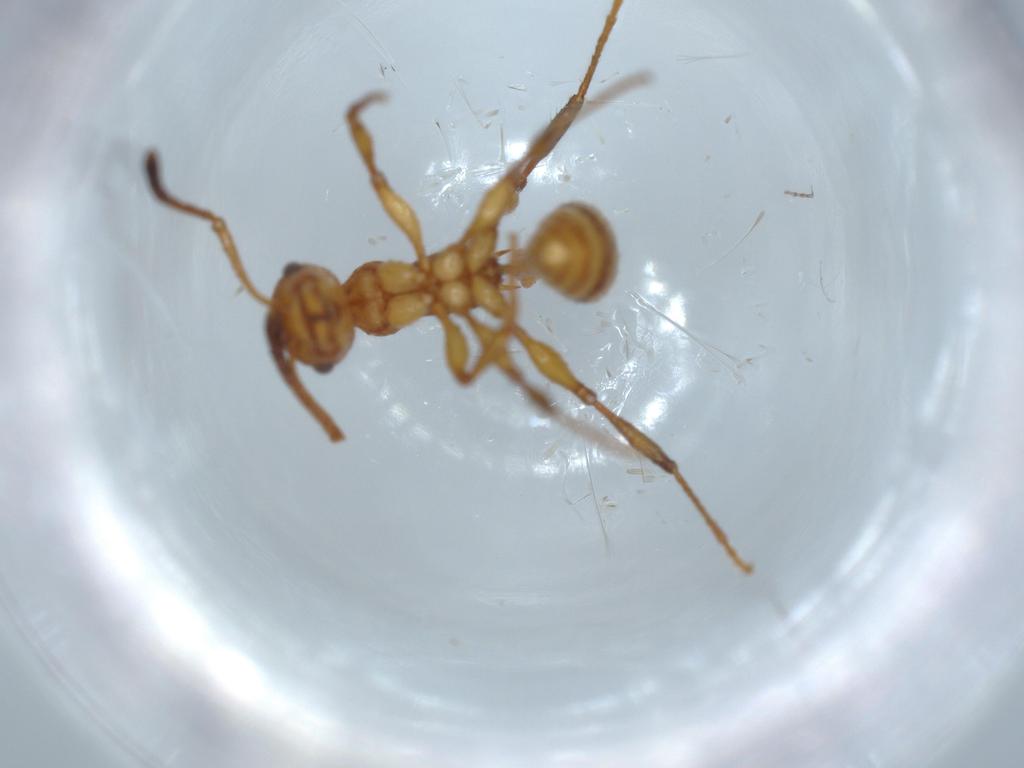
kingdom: Animalia
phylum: Arthropoda
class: Insecta
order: Hymenoptera
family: Formicidae
